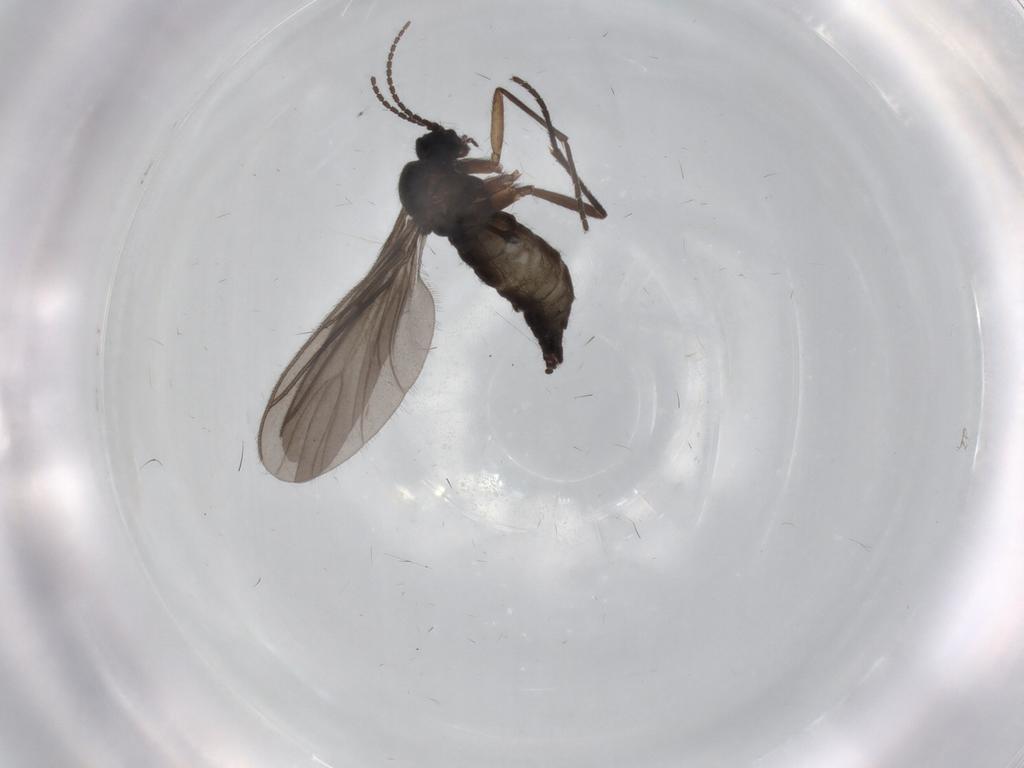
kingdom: Animalia
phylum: Arthropoda
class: Insecta
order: Diptera
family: Sciaridae
